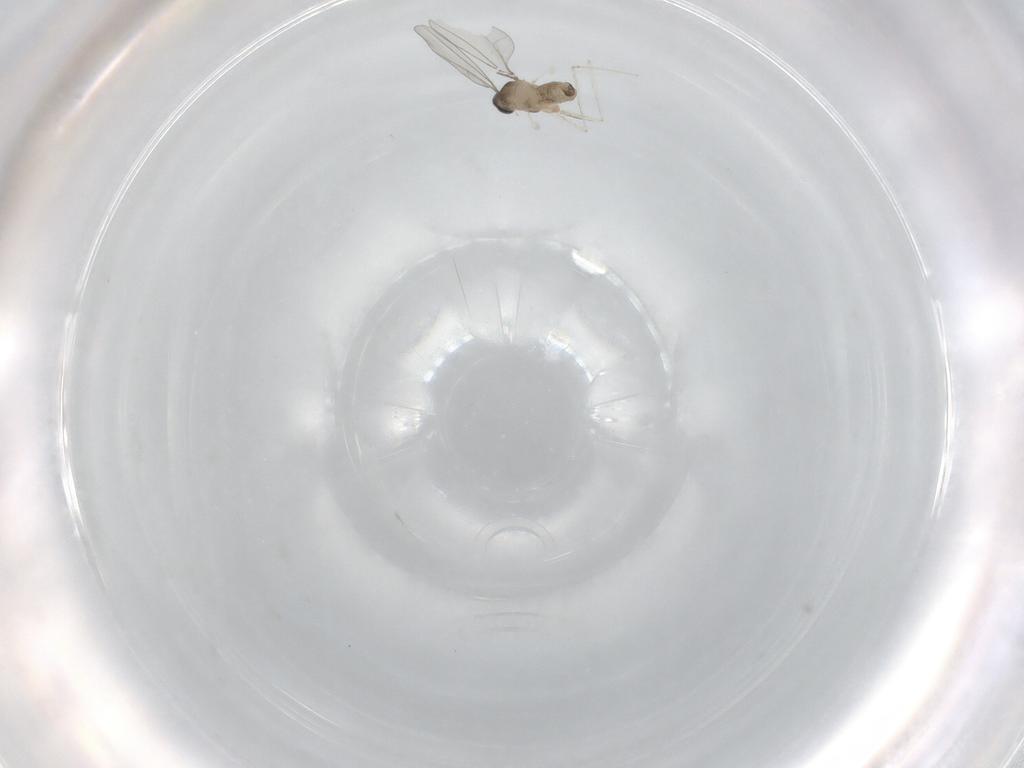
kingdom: Animalia
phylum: Arthropoda
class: Insecta
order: Diptera
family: Cecidomyiidae
